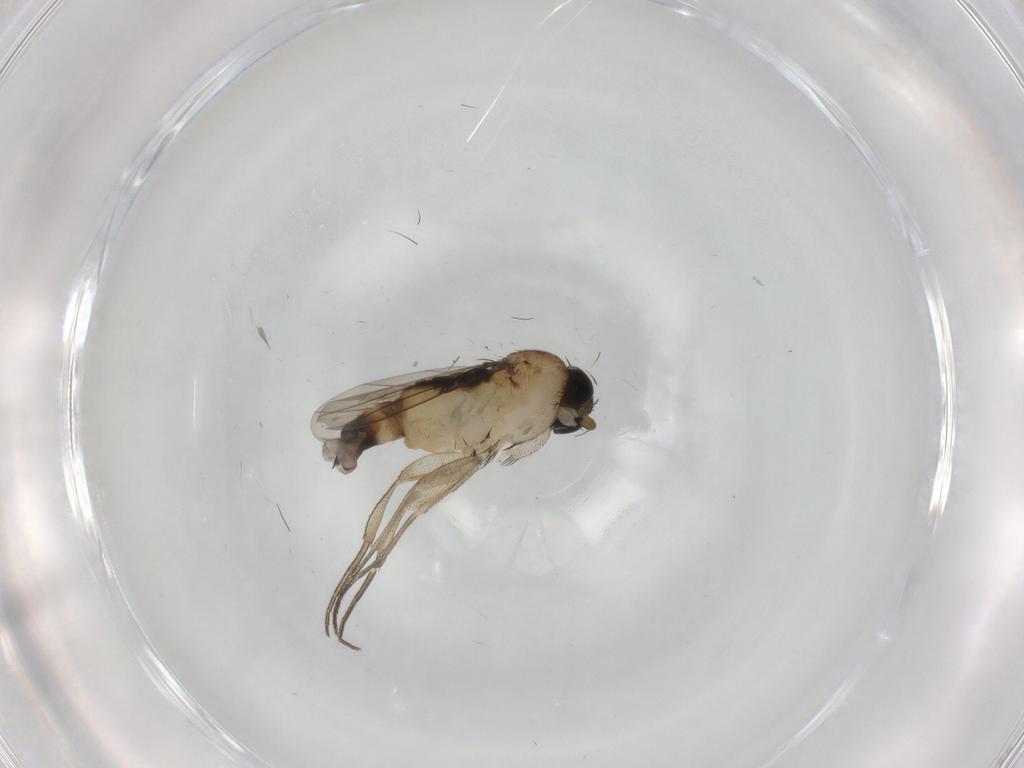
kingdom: Animalia
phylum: Arthropoda
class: Insecta
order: Diptera
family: Phoridae
